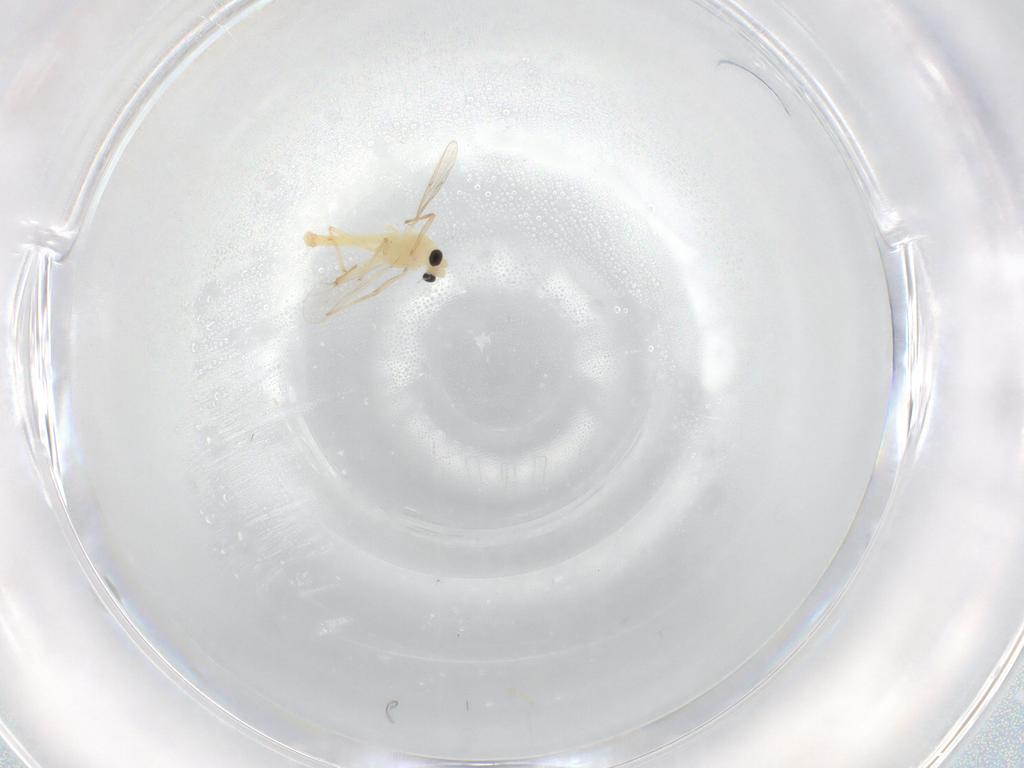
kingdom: Animalia
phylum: Arthropoda
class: Insecta
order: Diptera
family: Chironomidae
